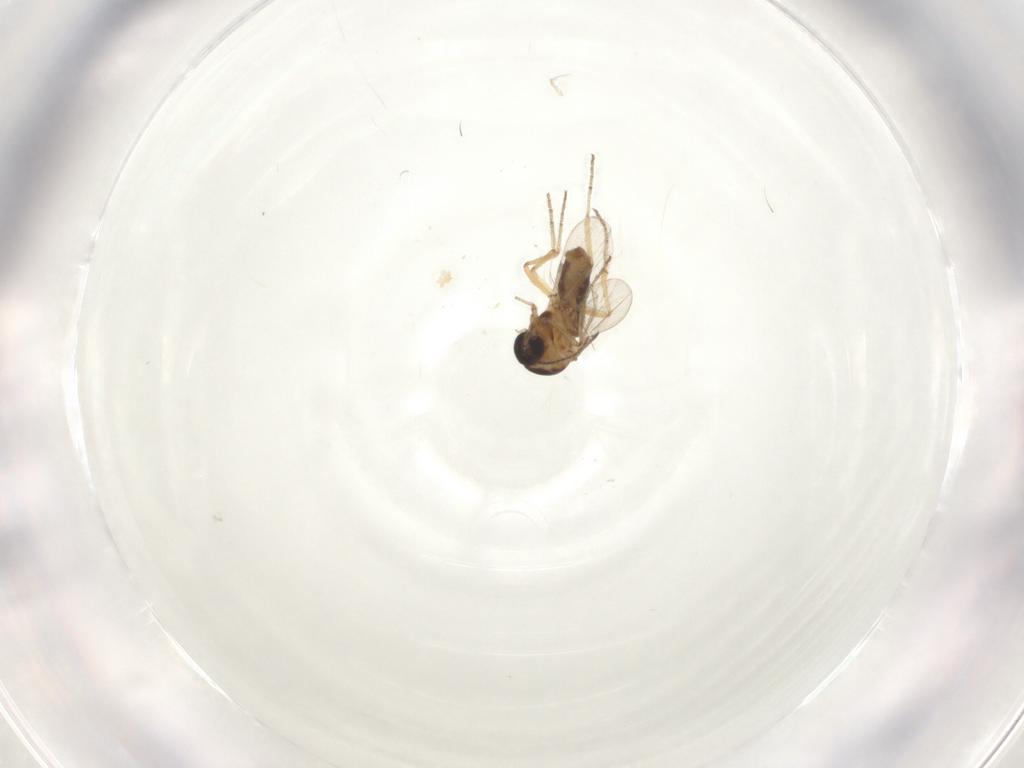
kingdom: Animalia
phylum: Arthropoda
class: Insecta
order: Diptera
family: Ceratopogonidae
